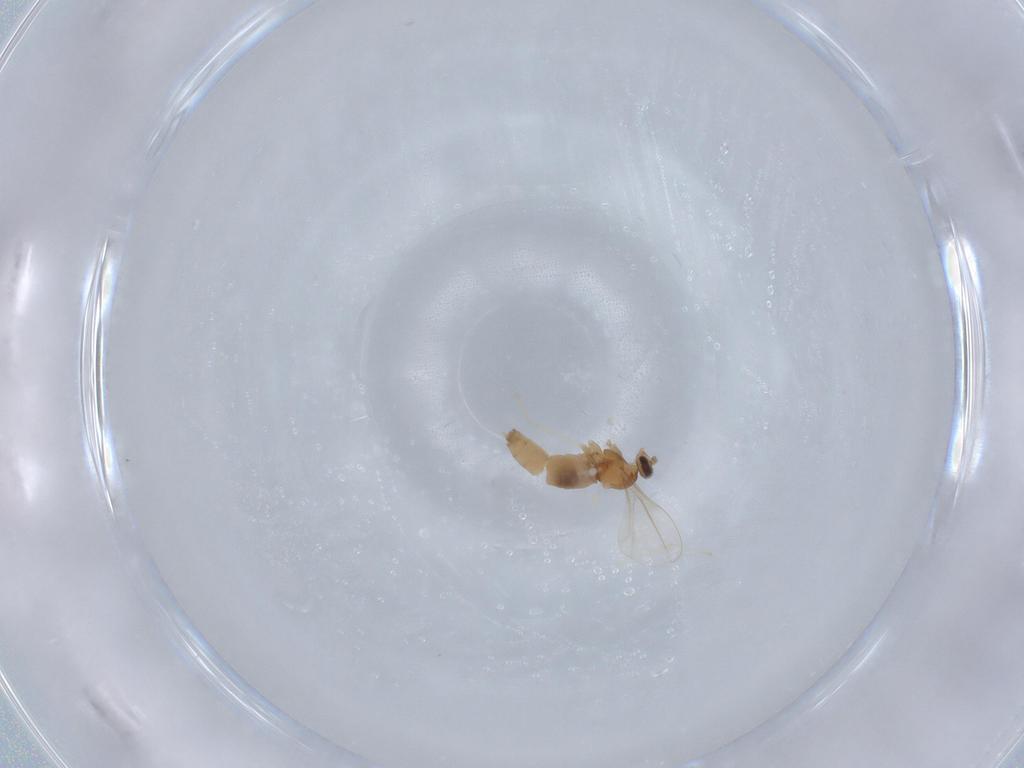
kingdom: Animalia
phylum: Arthropoda
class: Insecta
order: Diptera
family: Cecidomyiidae
